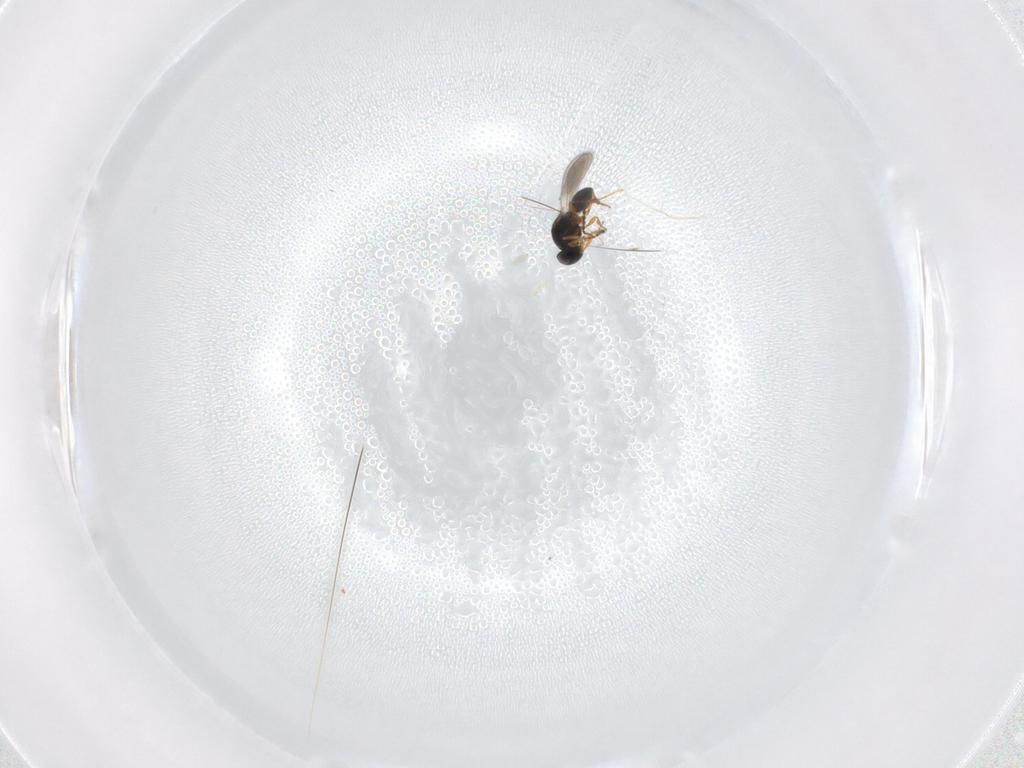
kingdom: Animalia
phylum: Arthropoda
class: Insecta
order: Hymenoptera
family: Platygastridae
